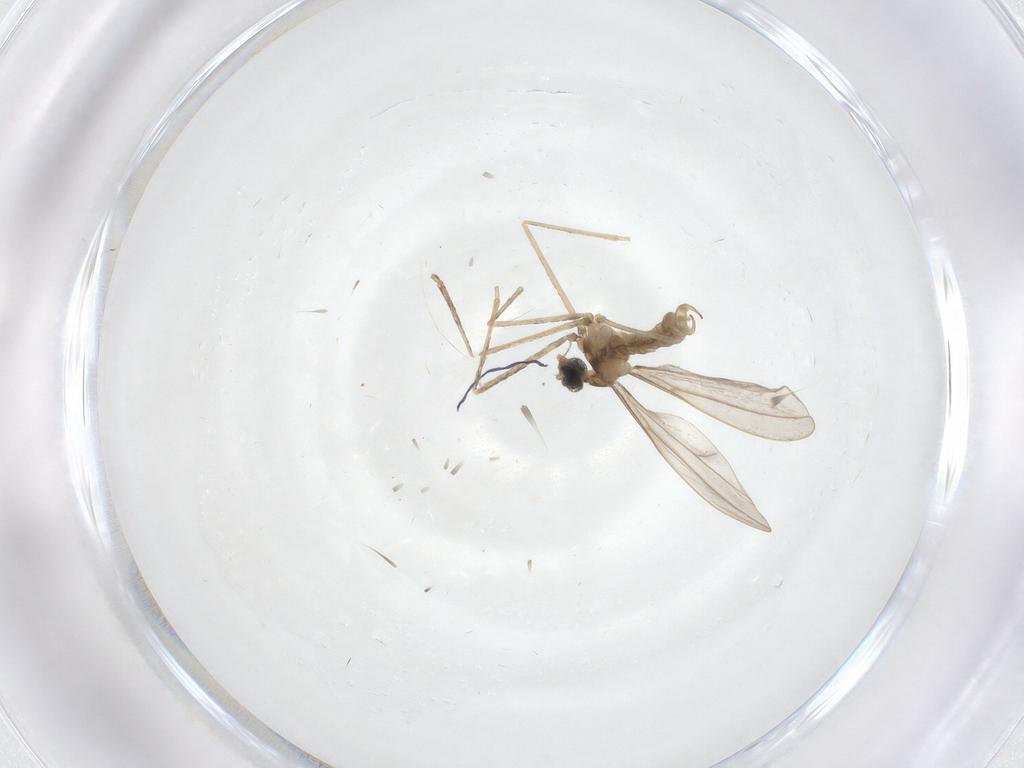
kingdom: Animalia
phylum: Arthropoda
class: Insecta
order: Diptera
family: Cecidomyiidae
